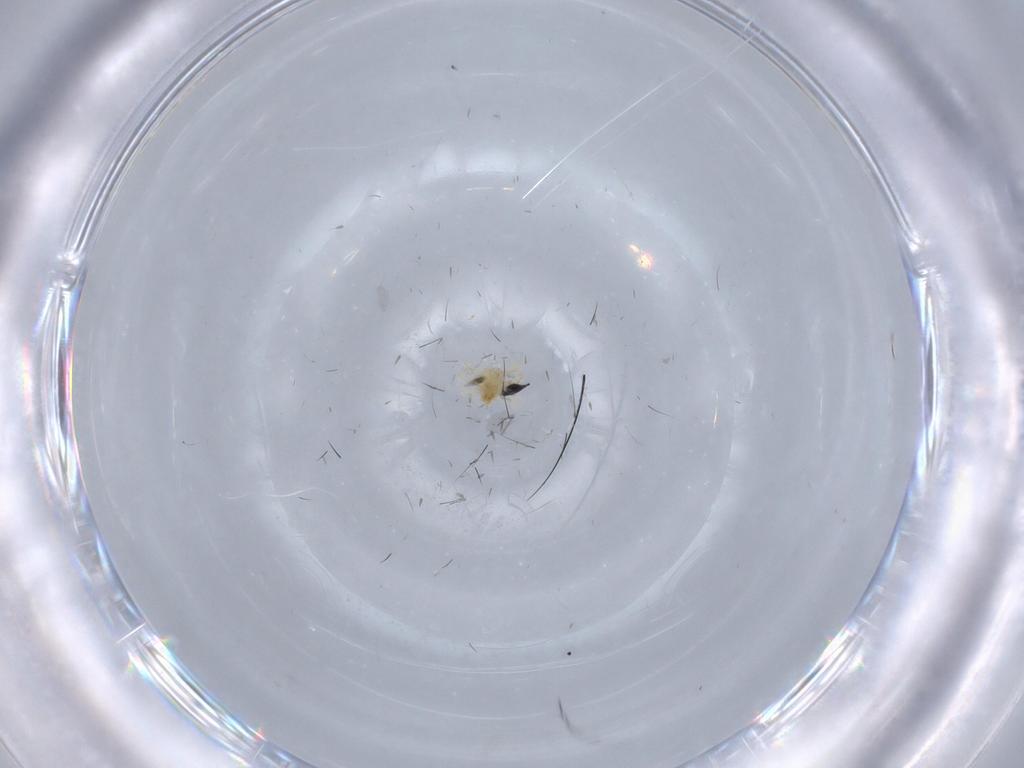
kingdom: Animalia
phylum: Arthropoda
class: Arachnida
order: Trombidiformes
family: Anystidae
